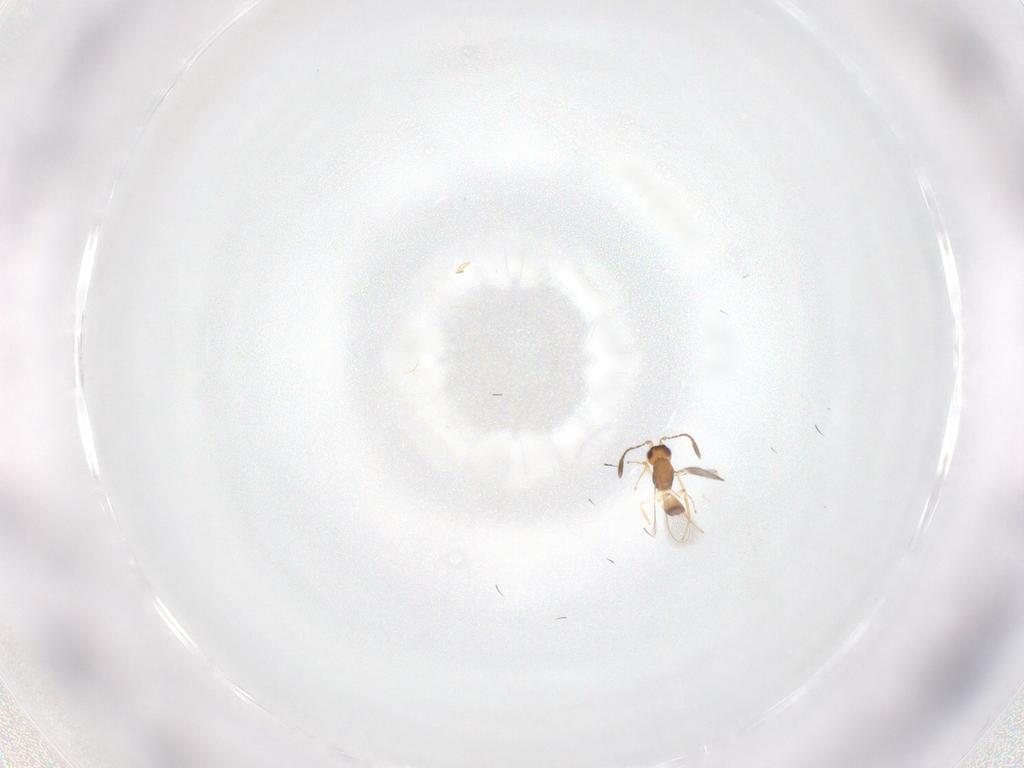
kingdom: Animalia
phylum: Arthropoda
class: Insecta
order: Hymenoptera
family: Mymaridae
